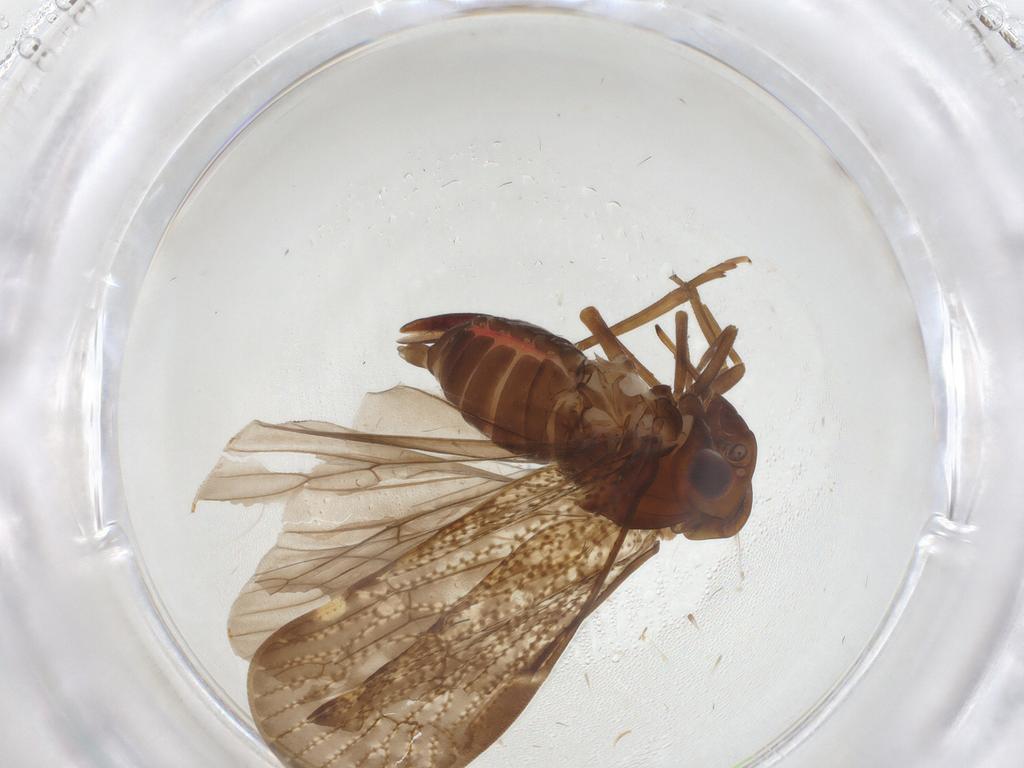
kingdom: Animalia
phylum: Arthropoda
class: Insecta
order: Hemiptera
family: Cixiidae
